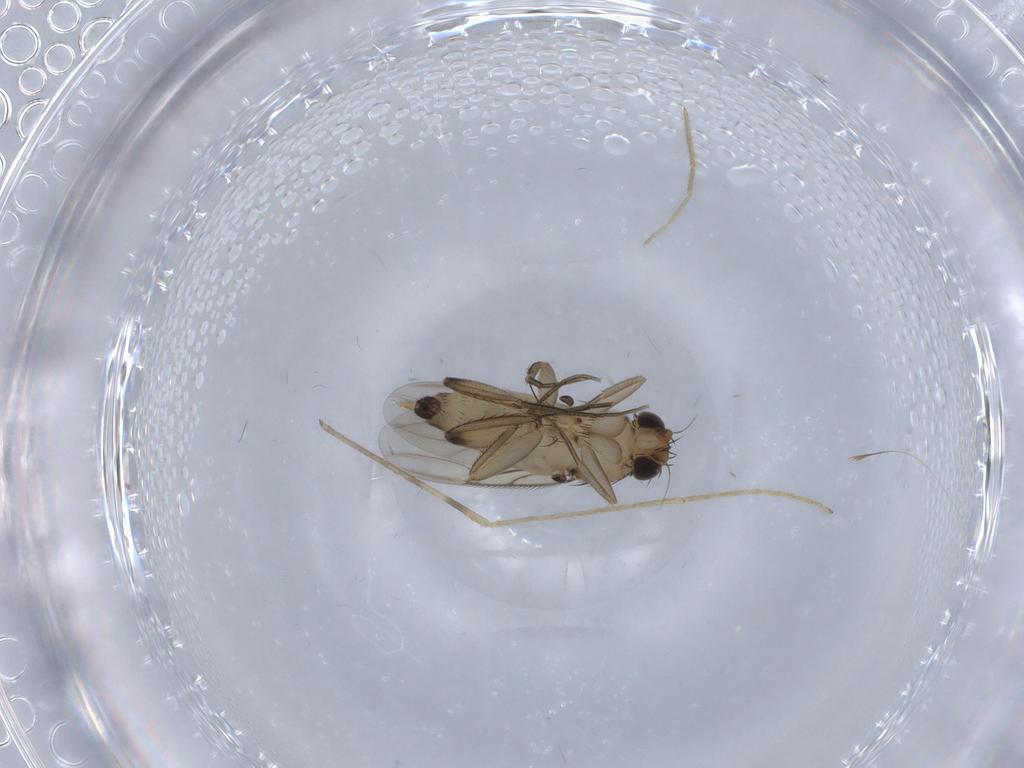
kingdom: Animalia
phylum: Arthropoda
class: Insecta
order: Diptera
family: Limoniidae
